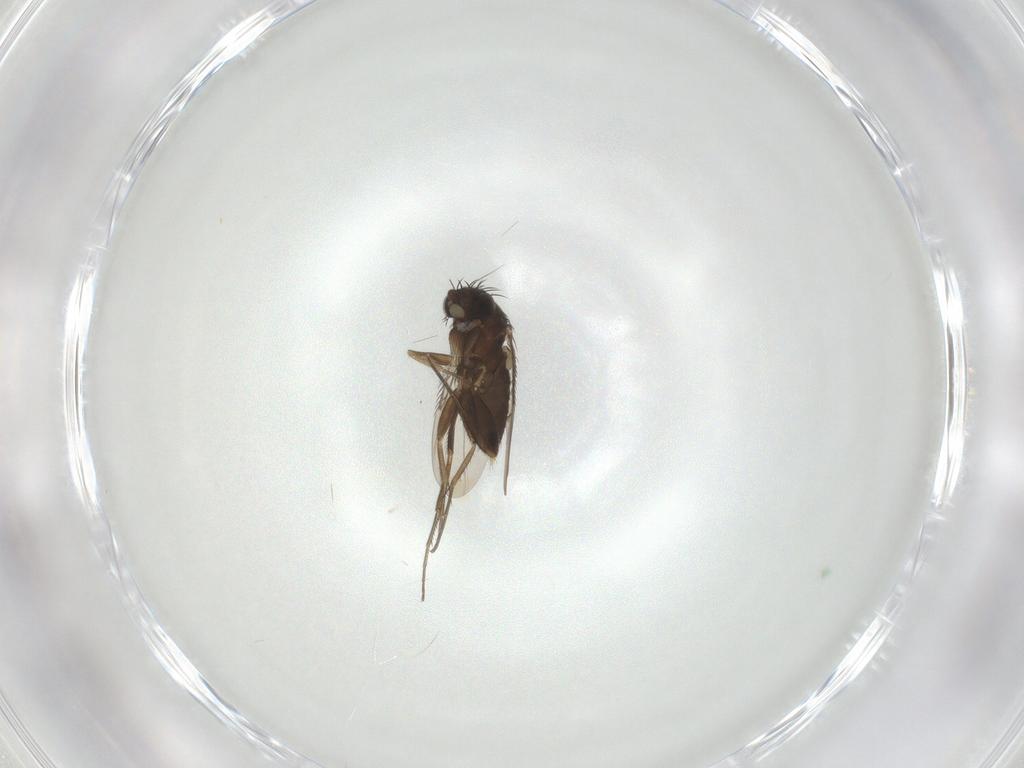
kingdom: Animalia
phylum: Arthropoda
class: Insecta
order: Diptera
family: Phoridae
